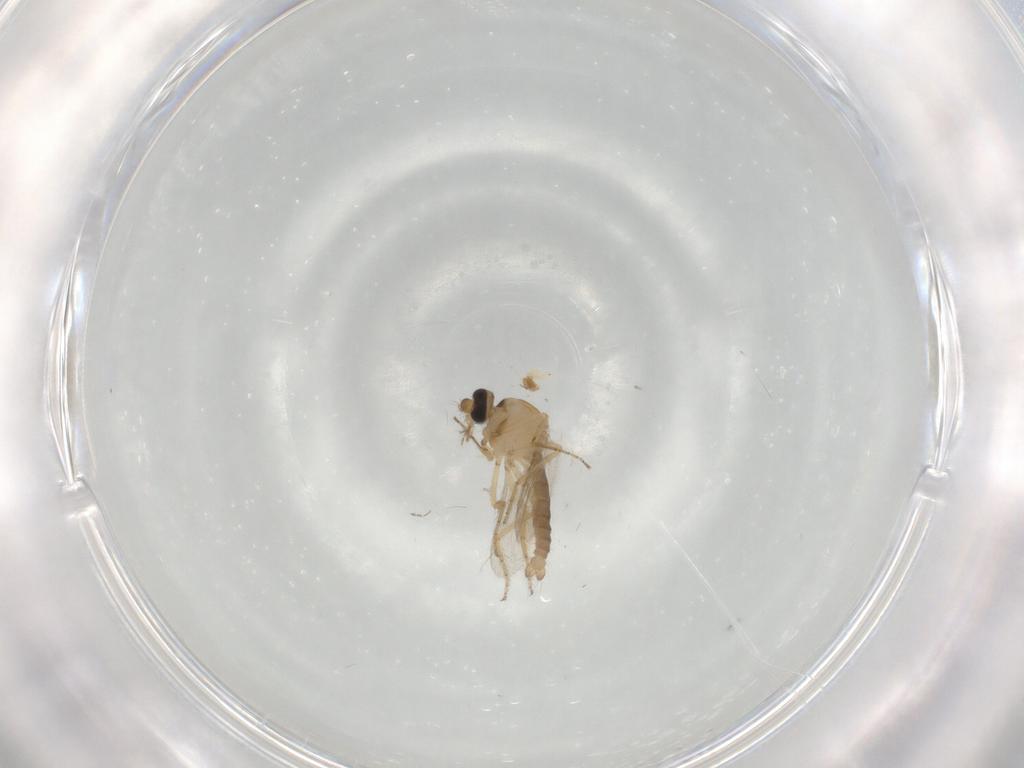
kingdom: Animalia
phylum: Arthropoda
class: Insecta
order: Diptera
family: Ceratopogonidae
